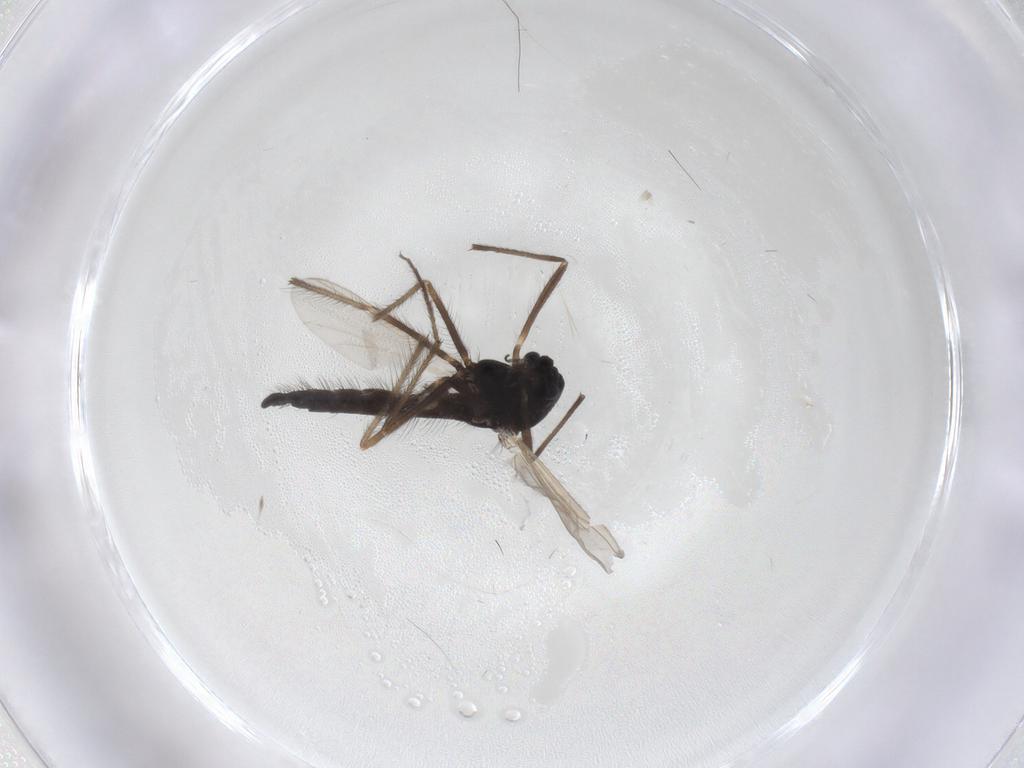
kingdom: Animalia
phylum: Arthropoda
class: Insecta
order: Diptera
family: Chironomidae
